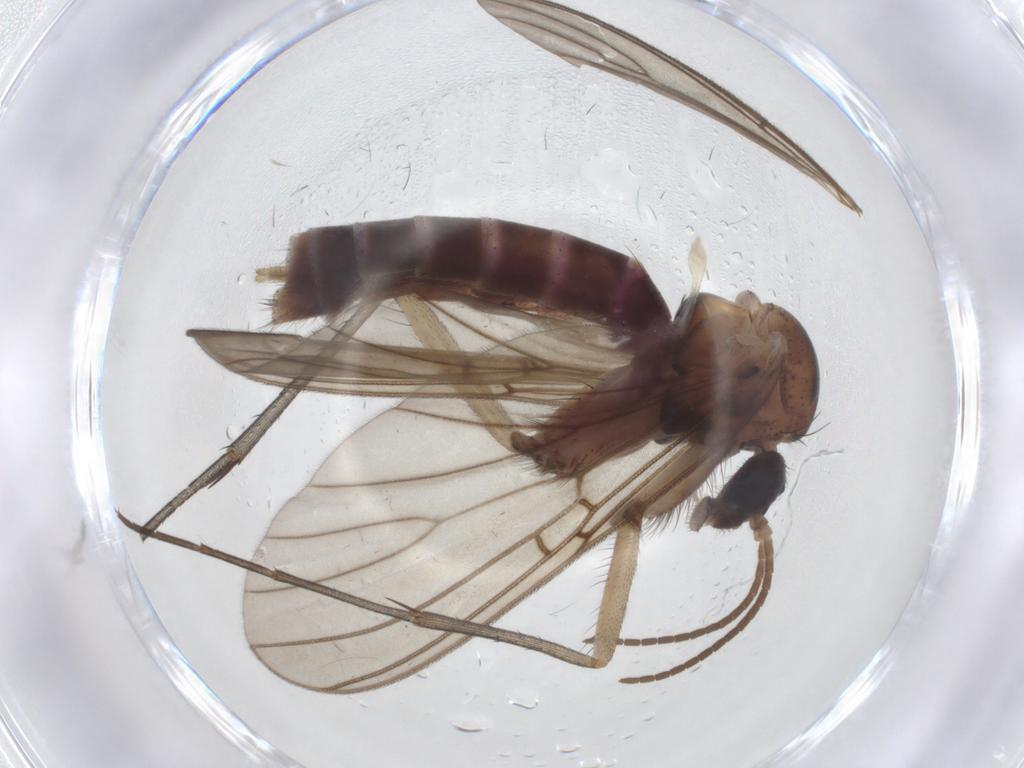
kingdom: Animalia
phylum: Arthropoda
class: Insecta
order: Diptera
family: Mycetophilidae
